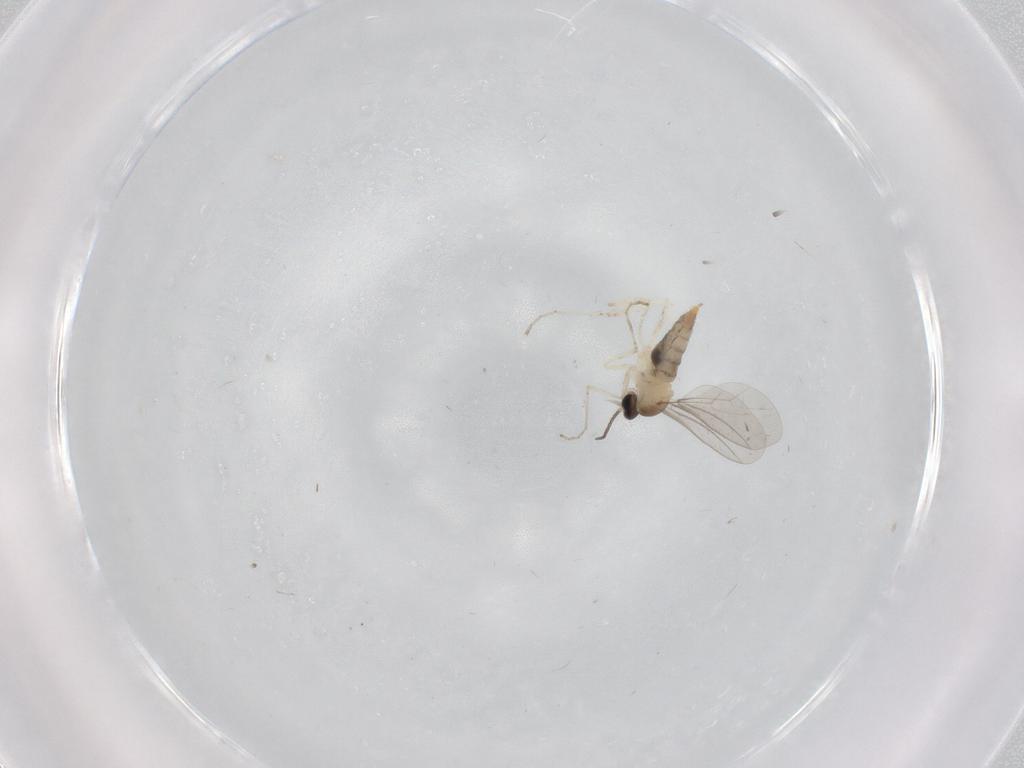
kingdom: Animalia
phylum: Arthropoda
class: Insecta
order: Diptera
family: Cecidomyiidae
